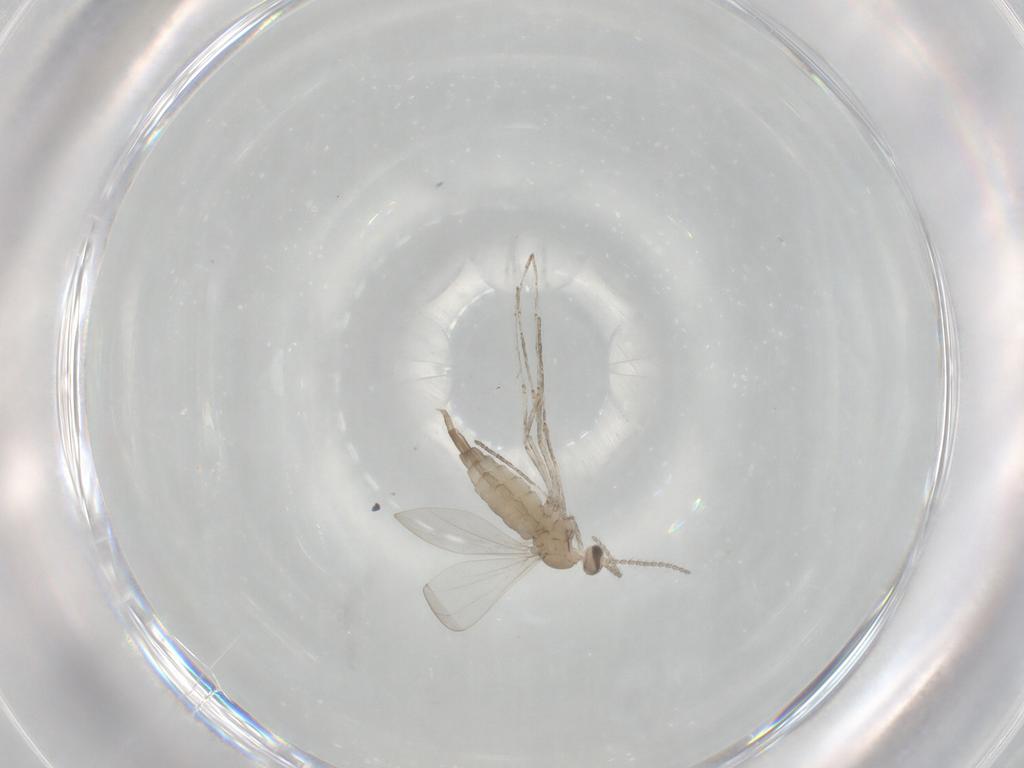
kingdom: Animalia
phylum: Arthropoda
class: Insecta
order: Diptera
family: Cecidomyiidae
